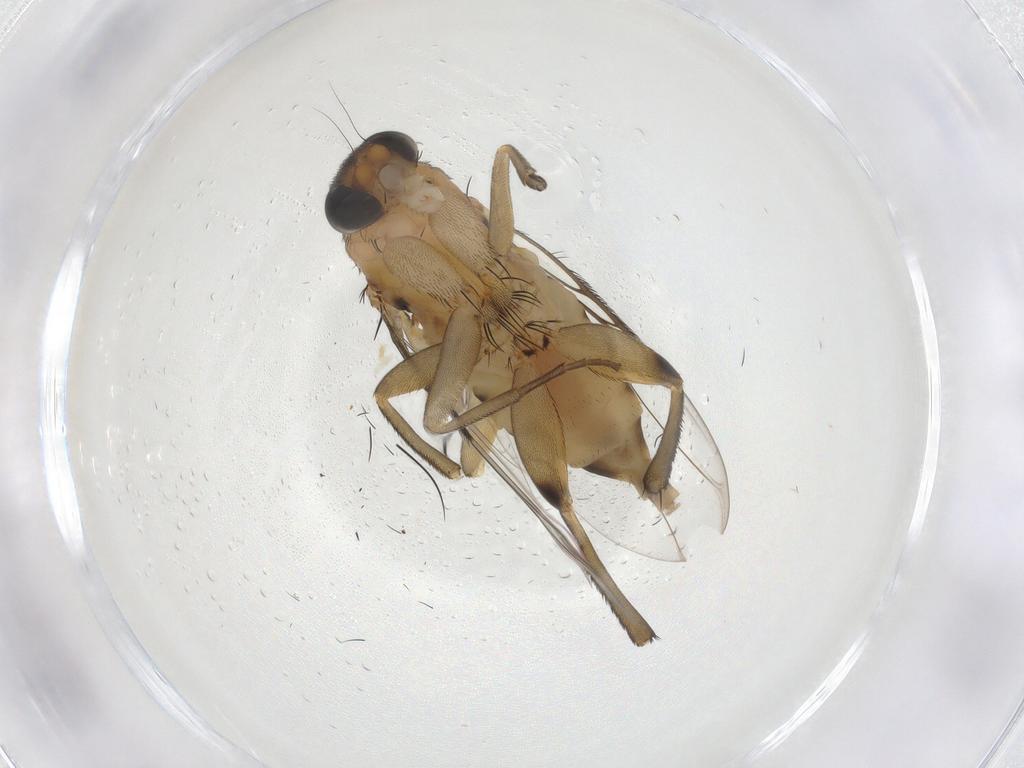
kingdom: Animalia
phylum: Arthropoda
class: Insecta
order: Diptera
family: Phoridae
